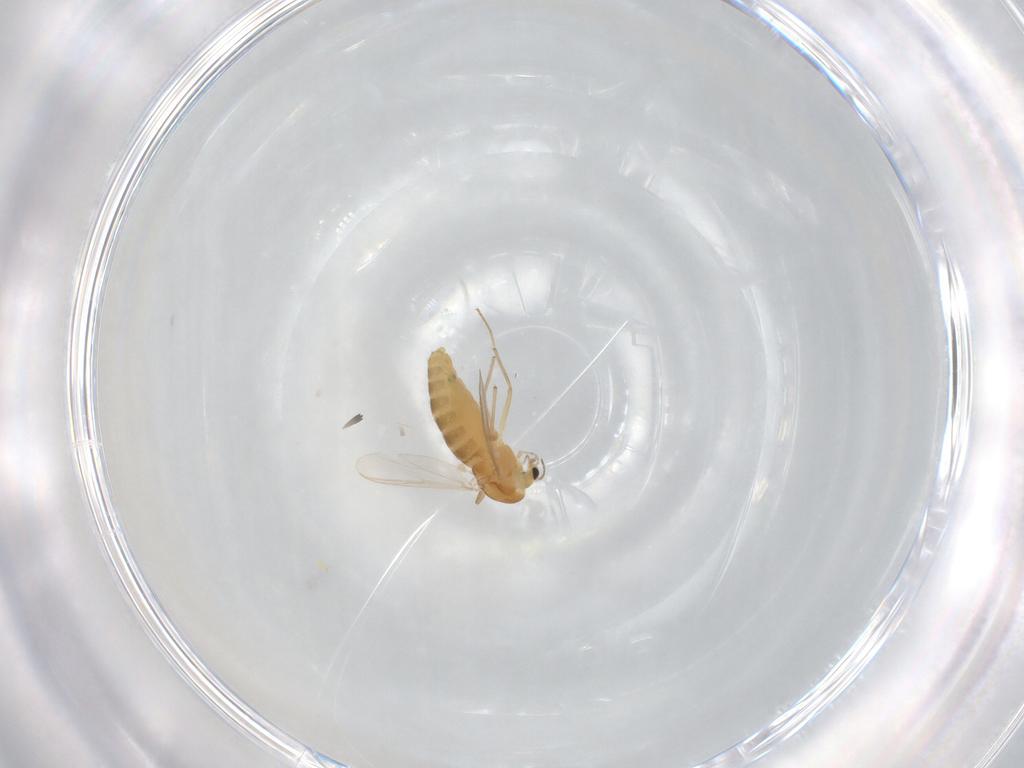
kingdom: Animalia
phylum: Arthropoda
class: Insecta
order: Diptera
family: Chironomidae
